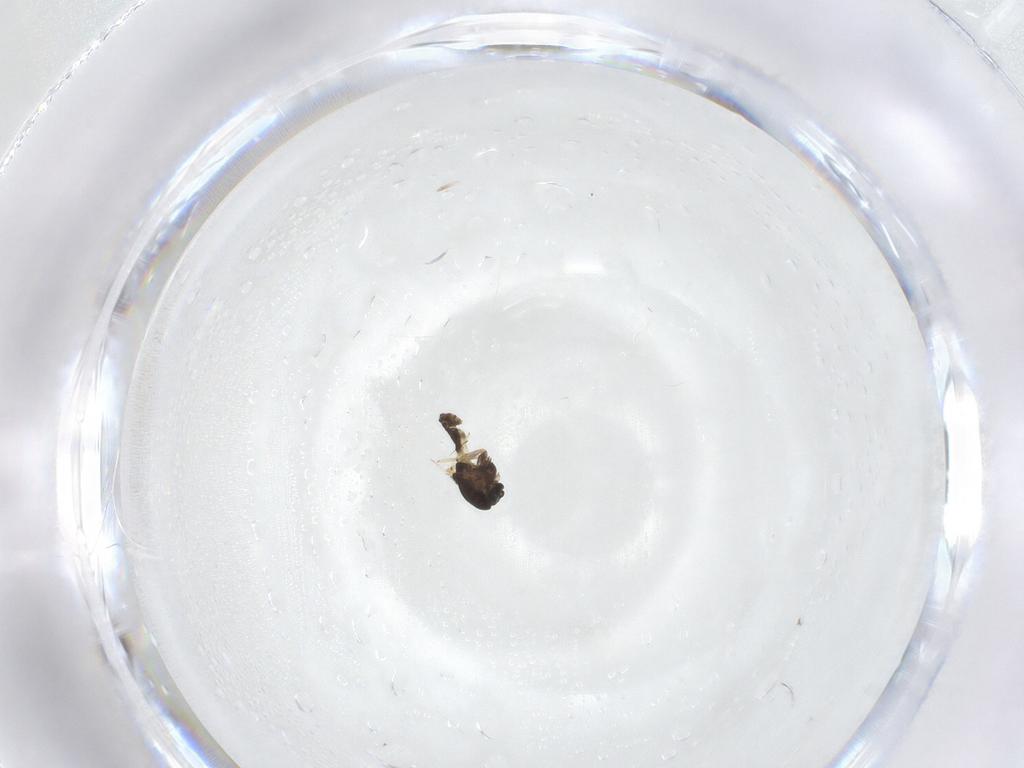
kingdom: Animalia
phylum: Arthropoda
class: Insecta
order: Diptera
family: Chironomidae
